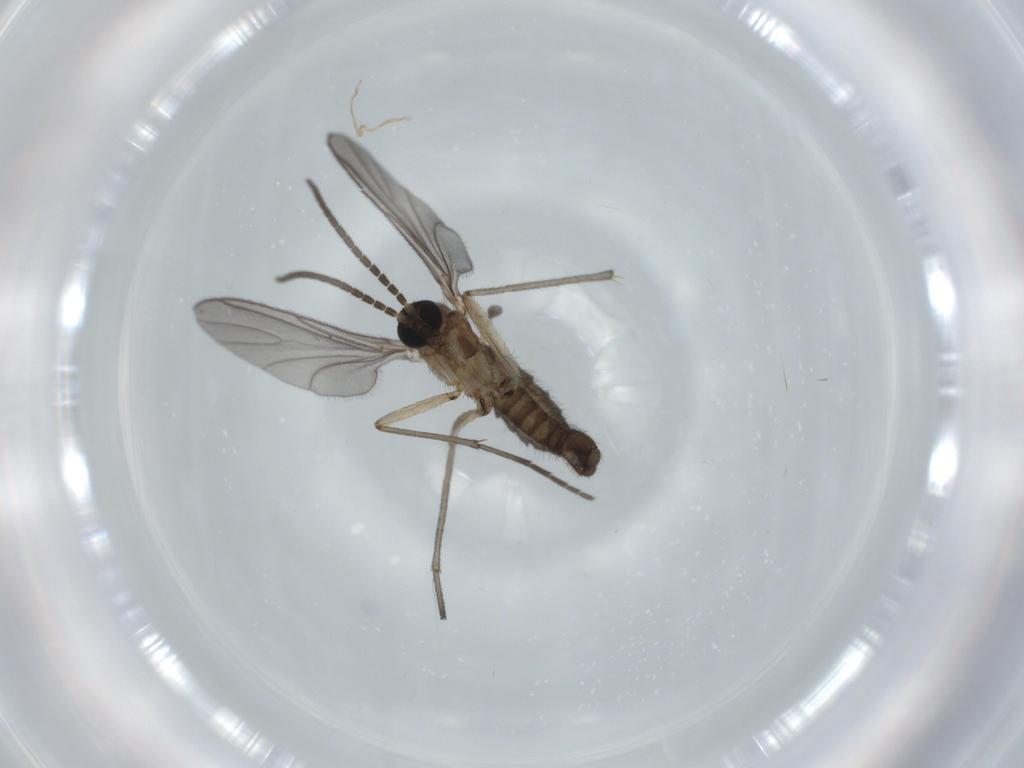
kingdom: Animalia
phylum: Arthropoda
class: Insecta
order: Diptera
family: Sciaridae
